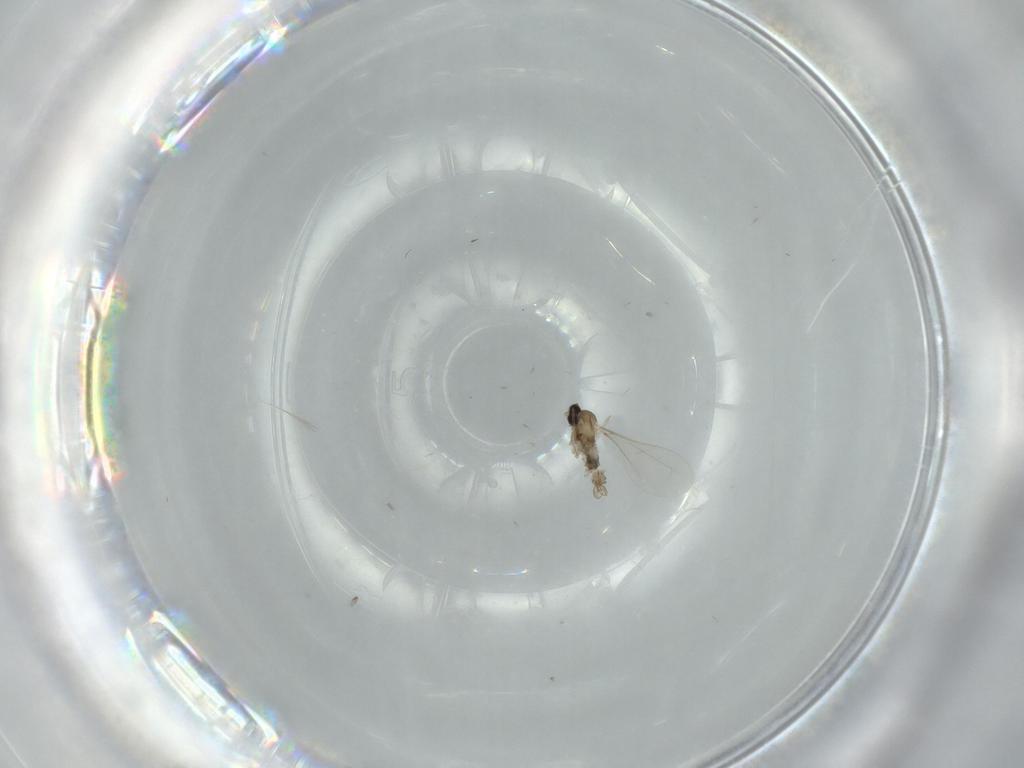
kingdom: Animalia
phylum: Arthropoda
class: Insecta
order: Diptera
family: Cecidomyiidae
